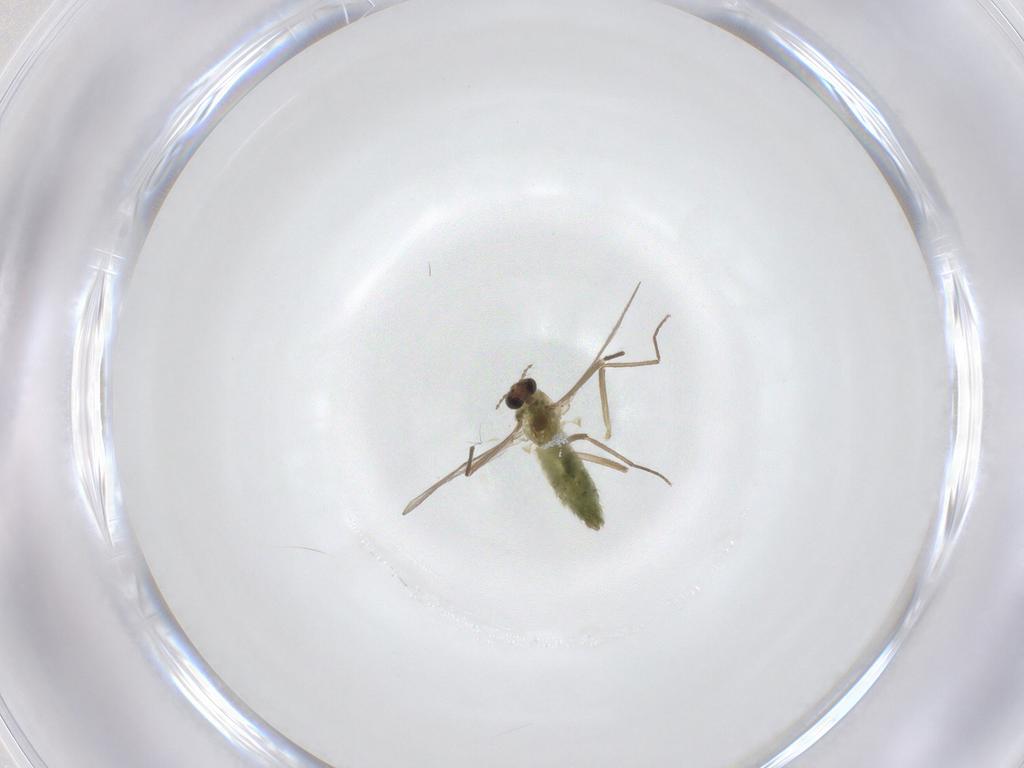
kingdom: Animalia
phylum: Arthropoda
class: Insecta
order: Diptera
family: Chironomidae
